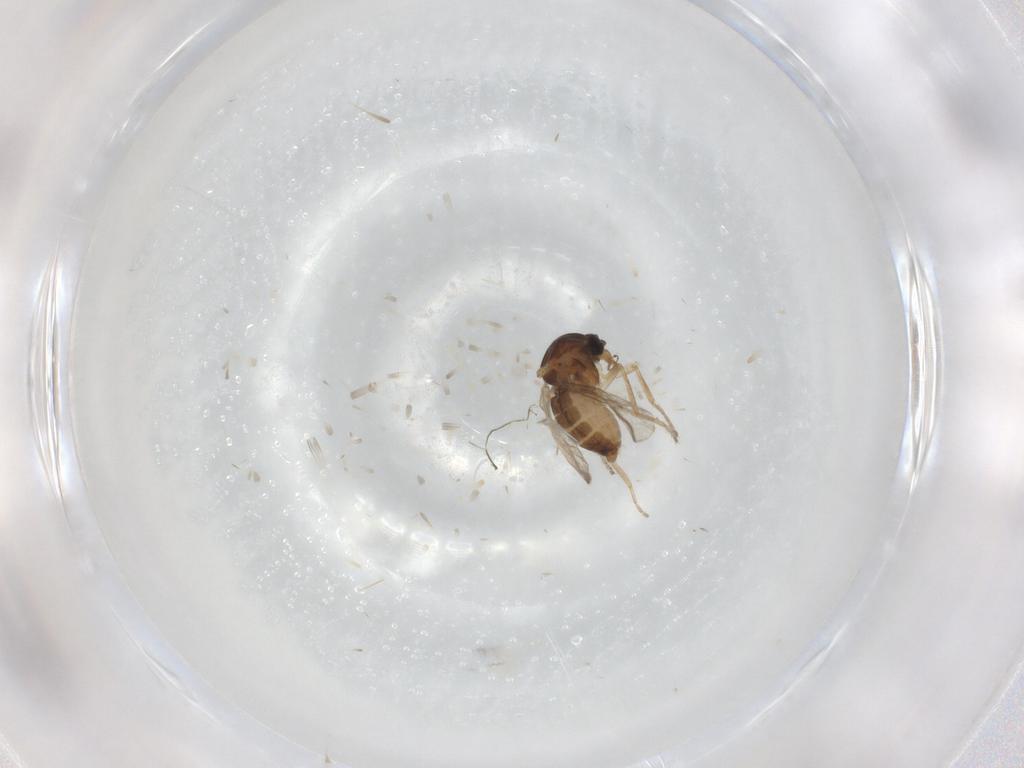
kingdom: Animalia
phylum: Arthropoda
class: Insecta
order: Diptera
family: Ceratopogonidae
